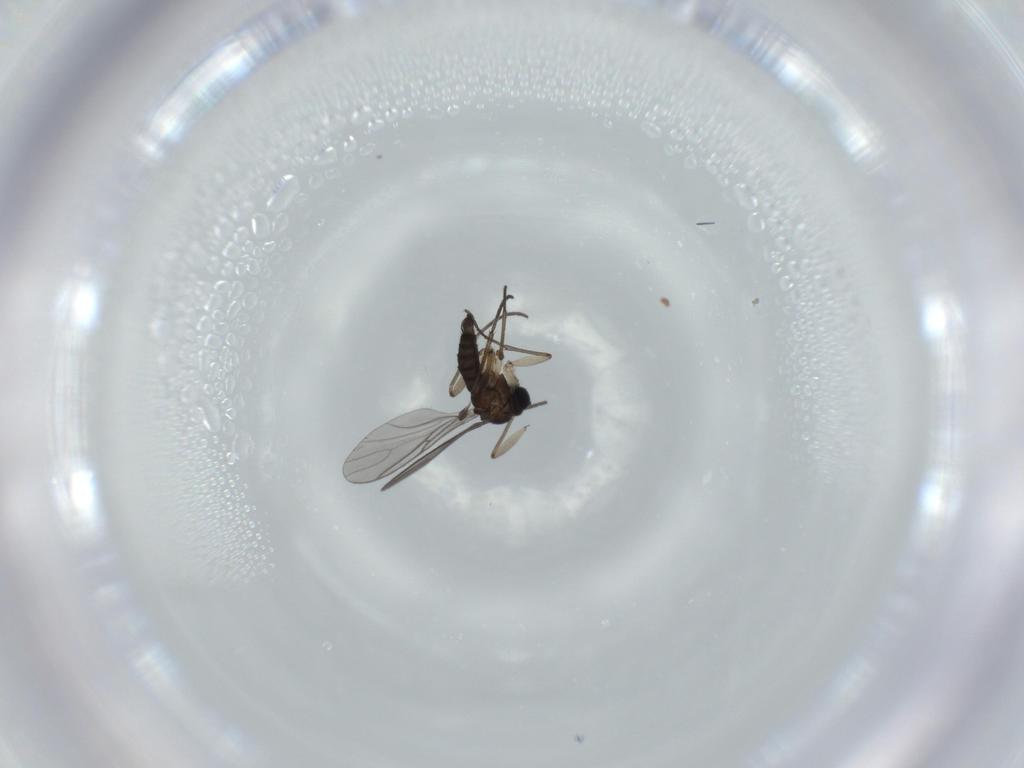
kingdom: Animalia
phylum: Arthropoda
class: Insecta
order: Diptera
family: Sciaridae
